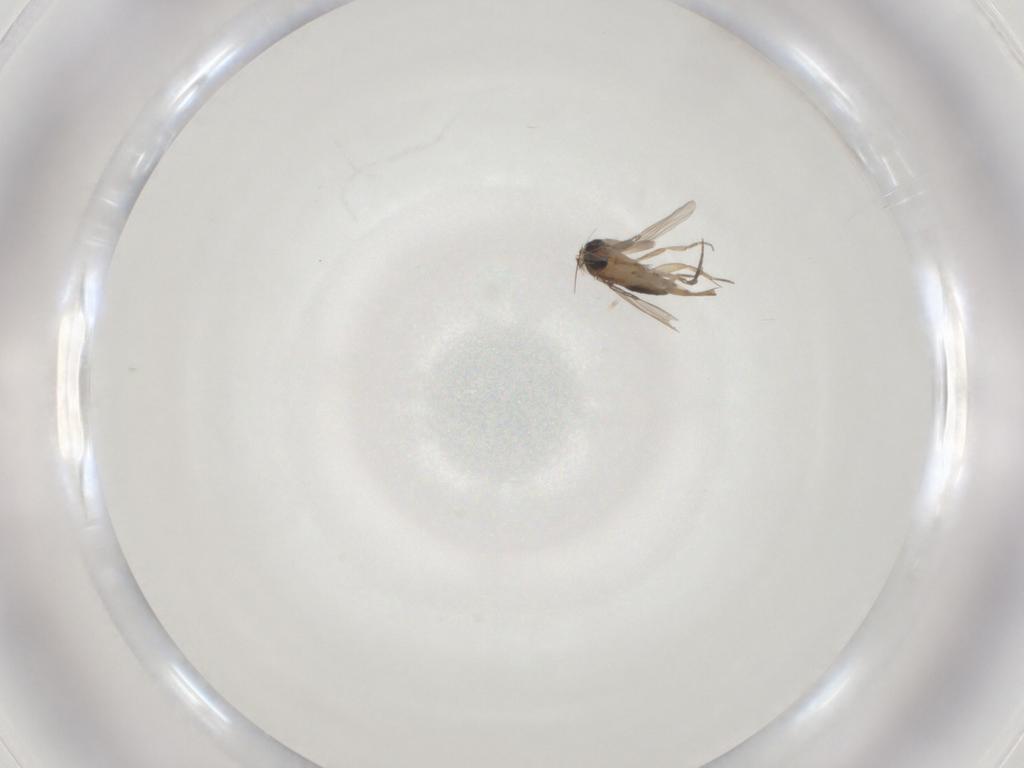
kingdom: Animalia
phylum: Arthropoda
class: Insecta
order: Diptera
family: Phoridae
